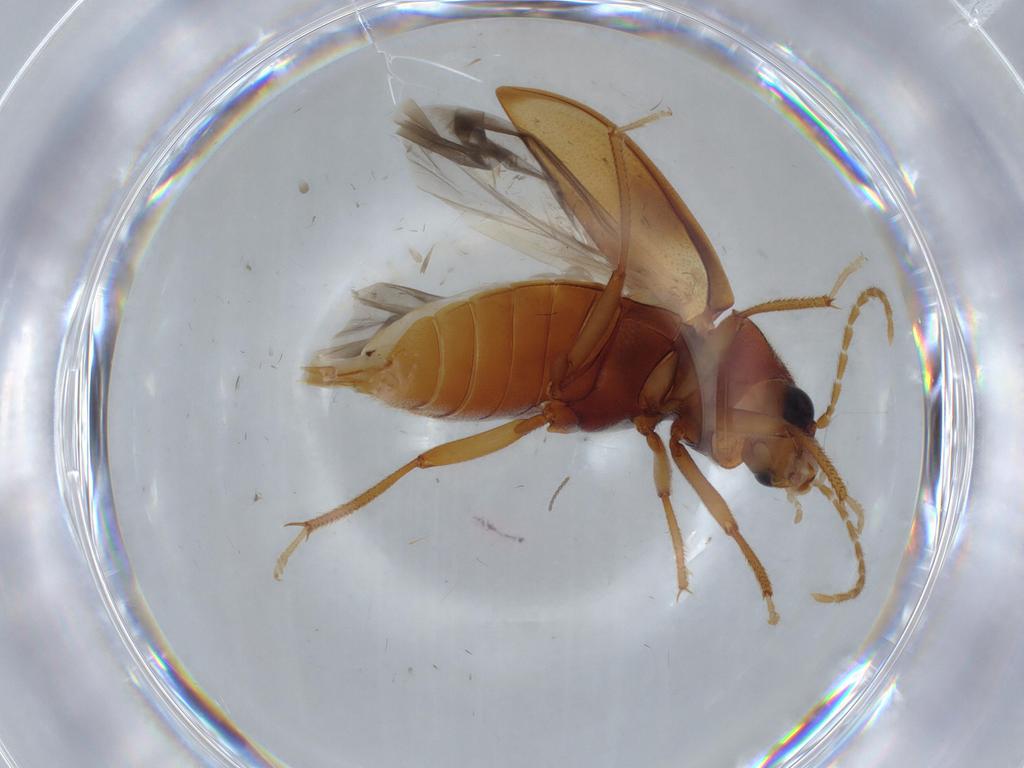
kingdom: Animalia
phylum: Arthropoda
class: Insecta
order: Coleoptera
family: Ptilodactylidae
